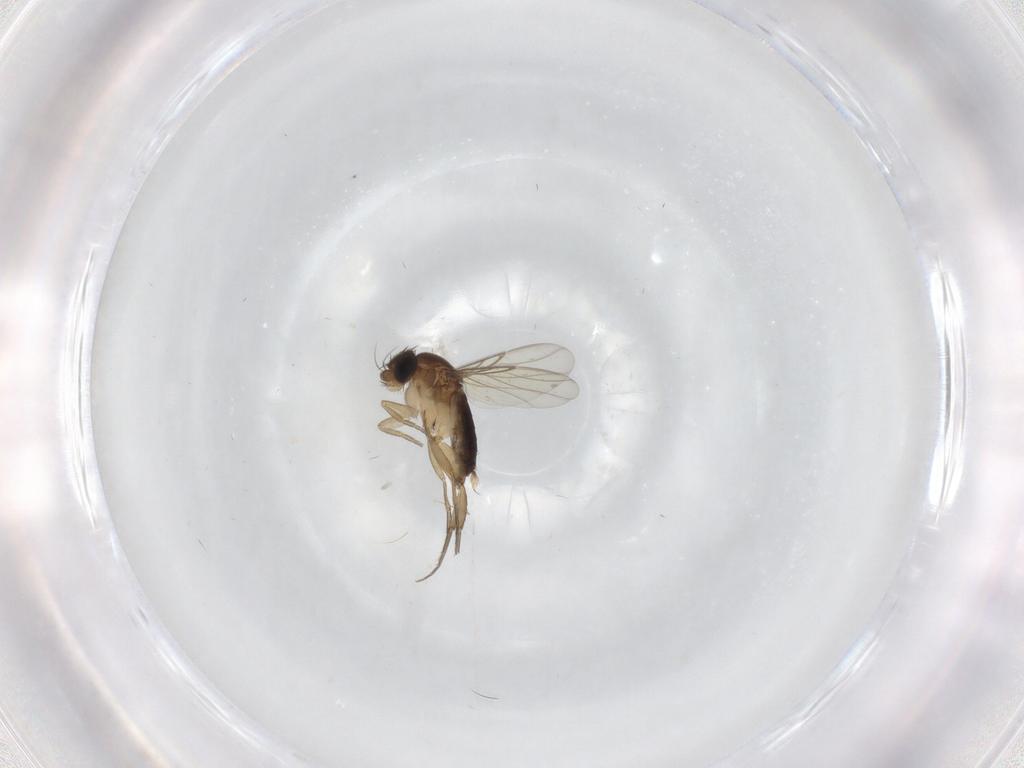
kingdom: Animalia
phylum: Arthropoda
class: Insecta
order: Diptera
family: Phoridae
